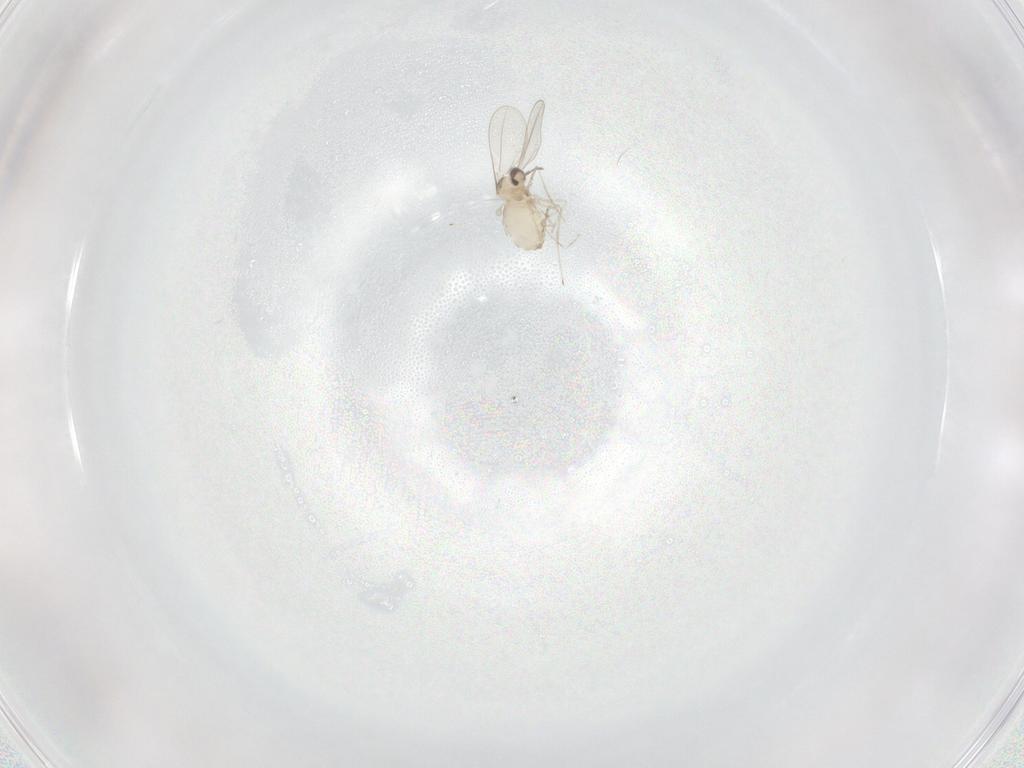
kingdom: Animalia
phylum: Arthropoda
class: Insecta
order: Diptera
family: Cecidomyiidae
